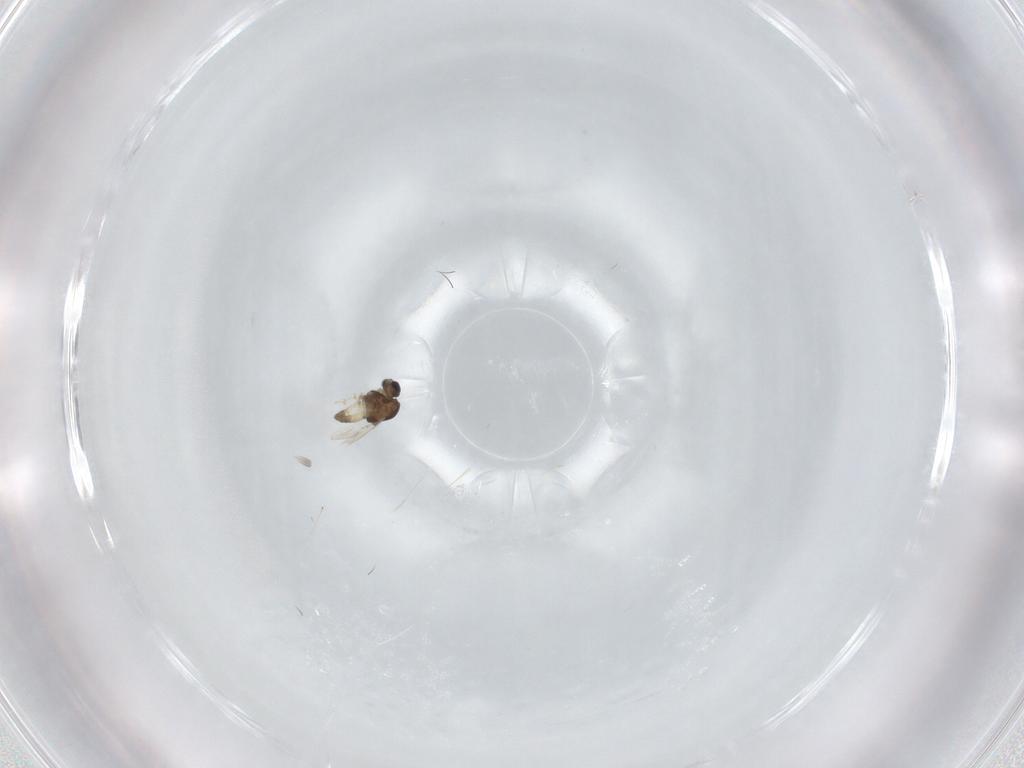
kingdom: Animalia
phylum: Arthropoda
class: Insecta
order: Diptera
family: Chironomidae
